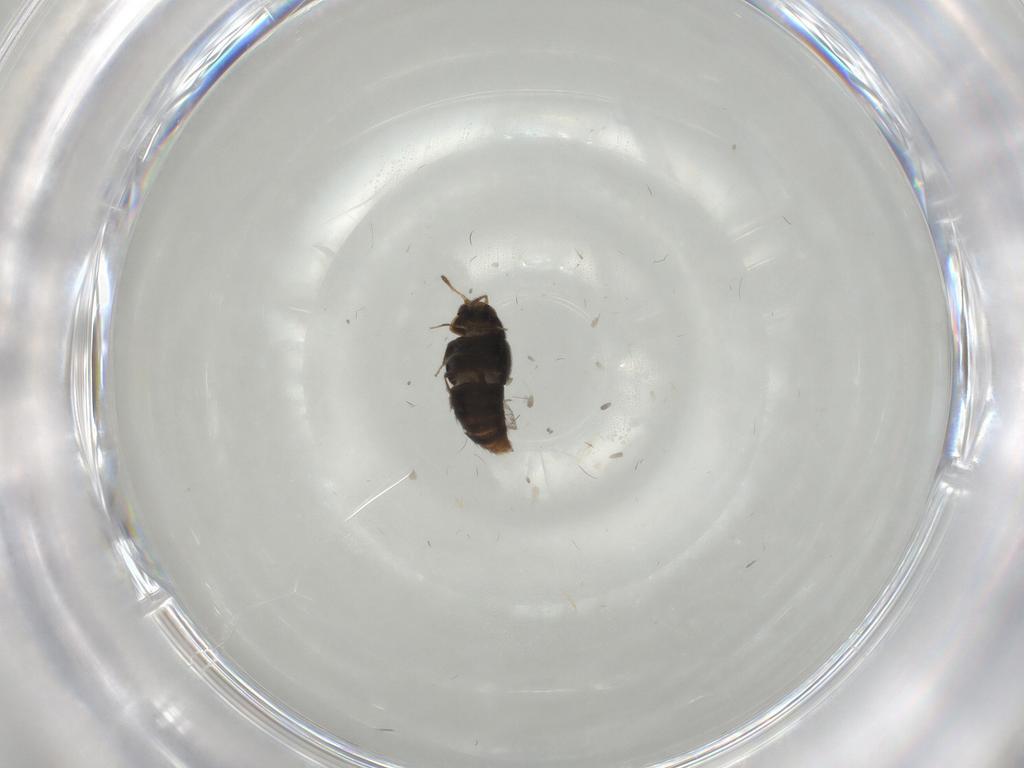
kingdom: Animalia
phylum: Arthropoda
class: Insecta
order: Coleoptera
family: Staphylinidae
